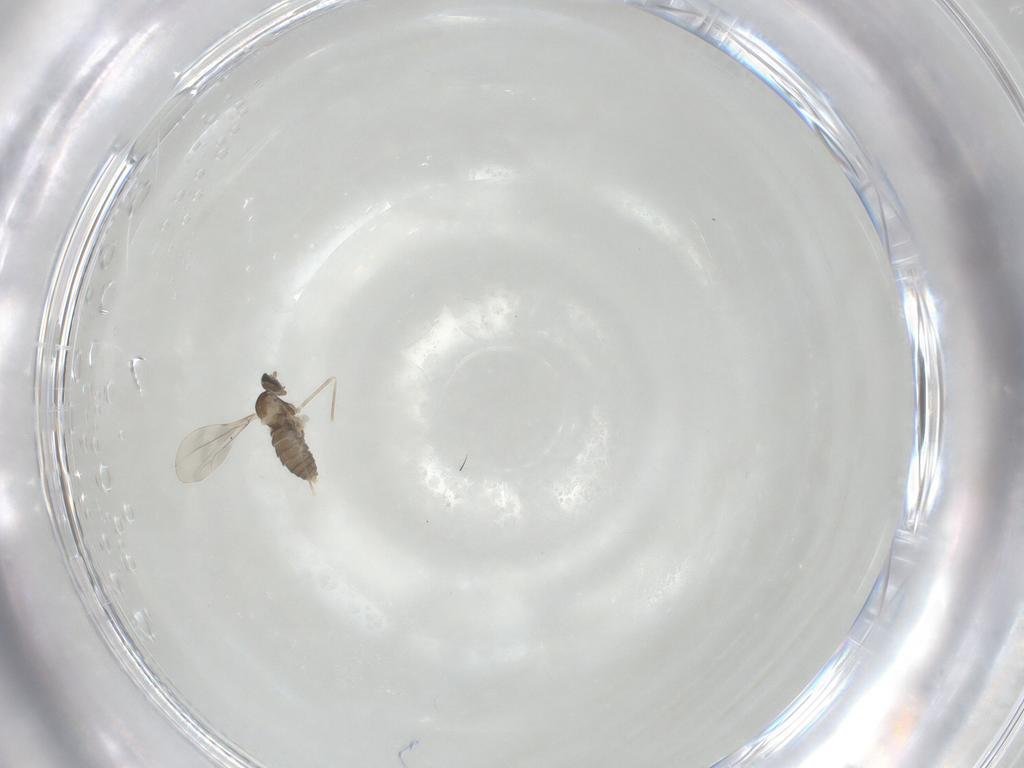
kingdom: Animalia
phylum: Arthropoda
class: Insecta
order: Diptera
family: Cecidomyiidae
